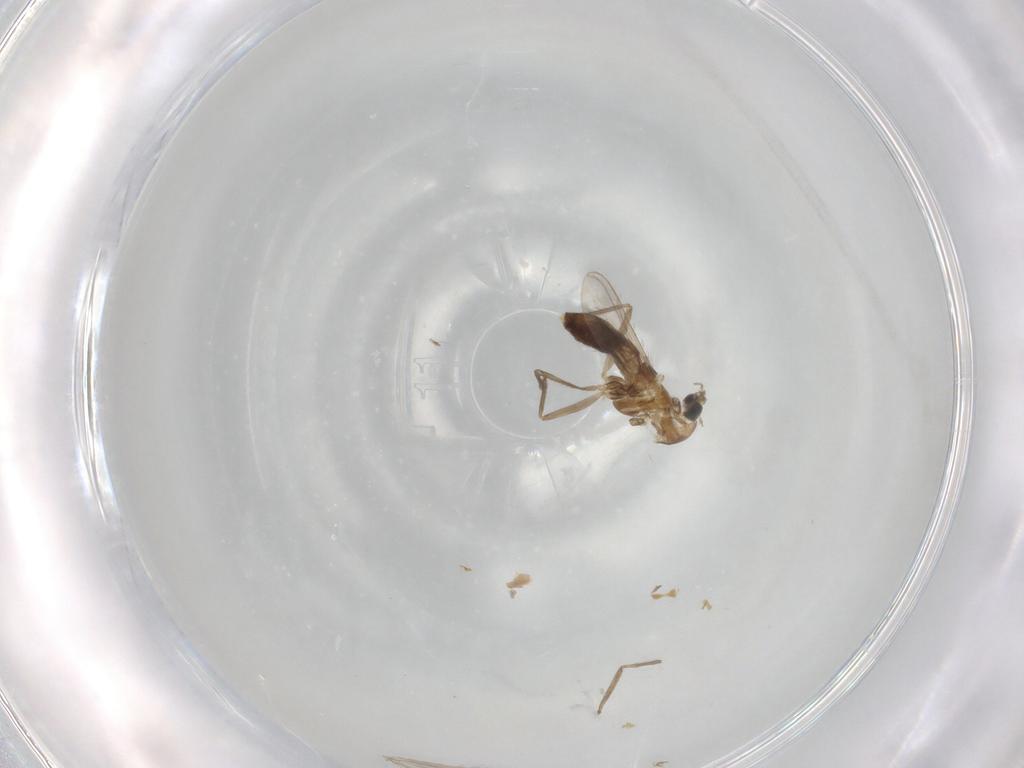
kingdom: Animalia
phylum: Arthropoda
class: Insecta
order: Diptera
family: Chironomidae
